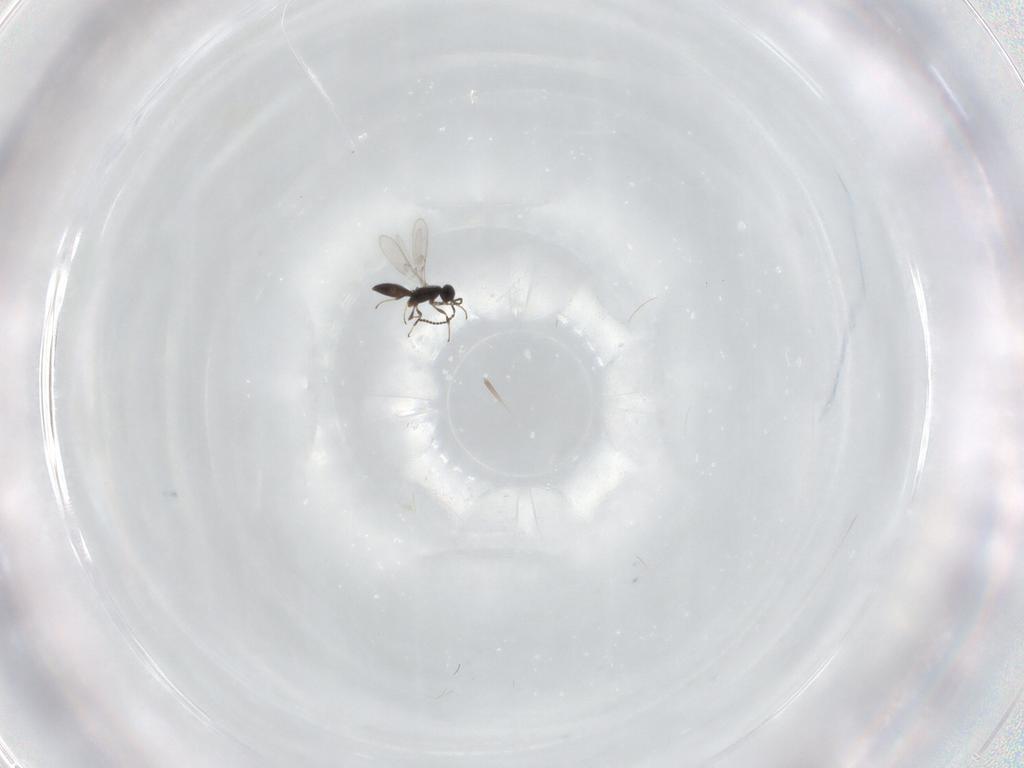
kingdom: Animalia
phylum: Arthropoda
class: Insecta
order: Hymenoptera
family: Scelionidae
